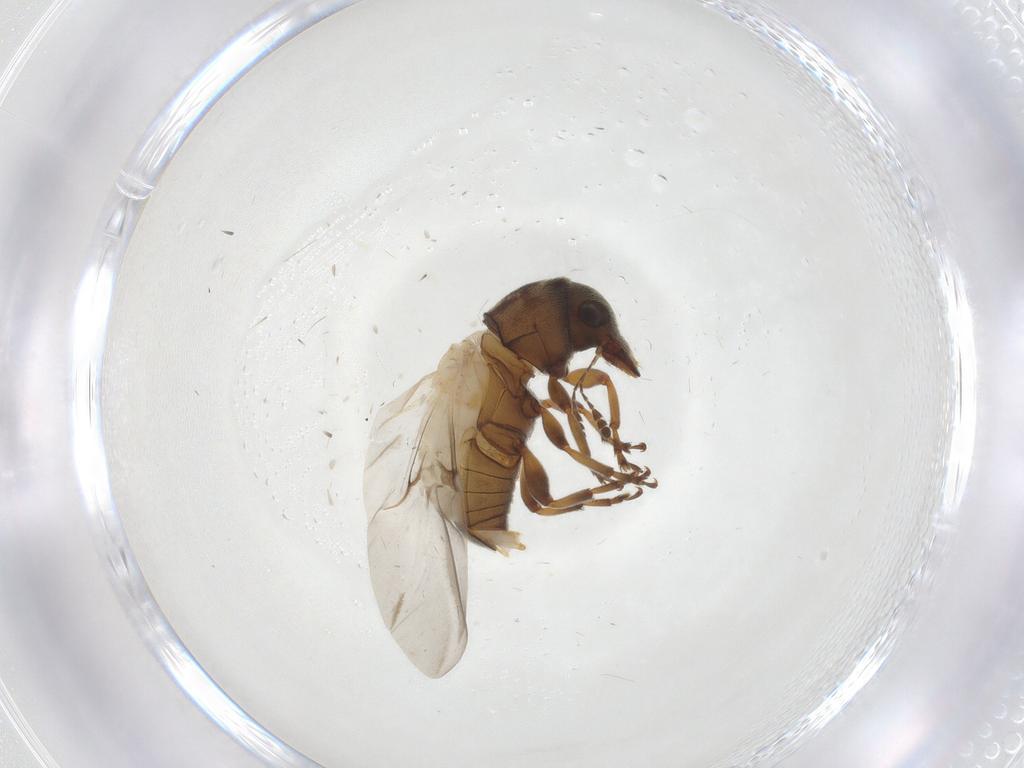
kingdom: Animalia
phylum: Arthropoda
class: Insecta
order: Coleoptera
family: Anthribidae
